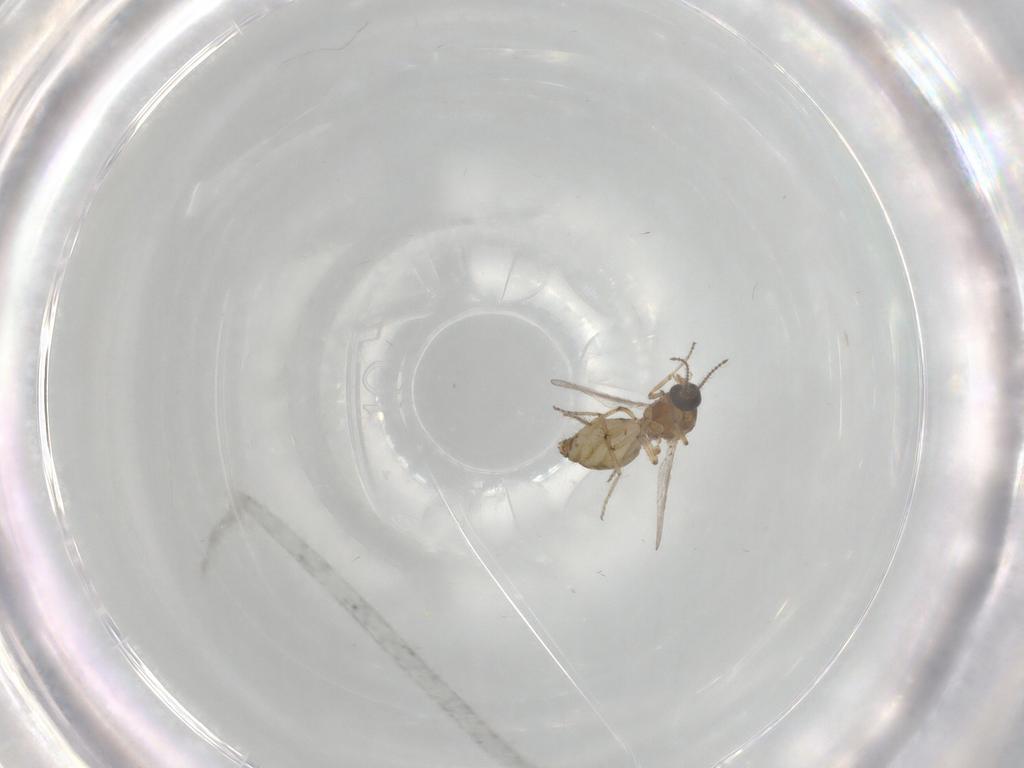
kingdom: Animalia
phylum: Arthropoda
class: Insecta
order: Diptera
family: Ceratopogonidae
